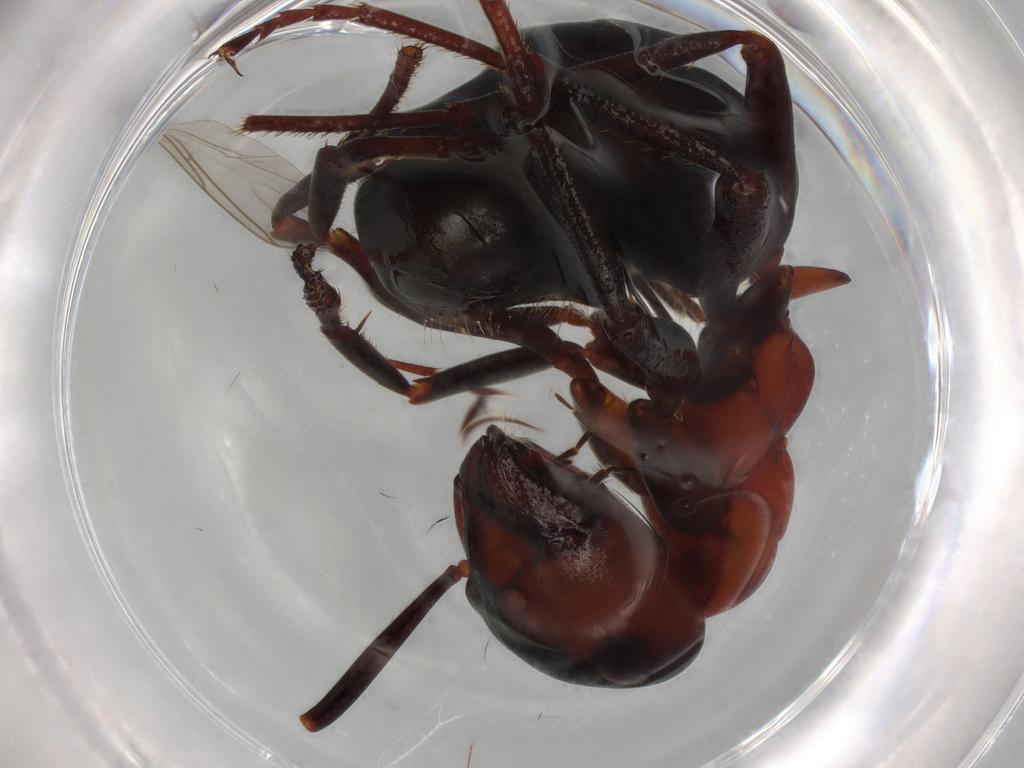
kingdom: Animalia
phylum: Arthropoda
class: Insecta
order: Hymenoptera
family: Formicidae
